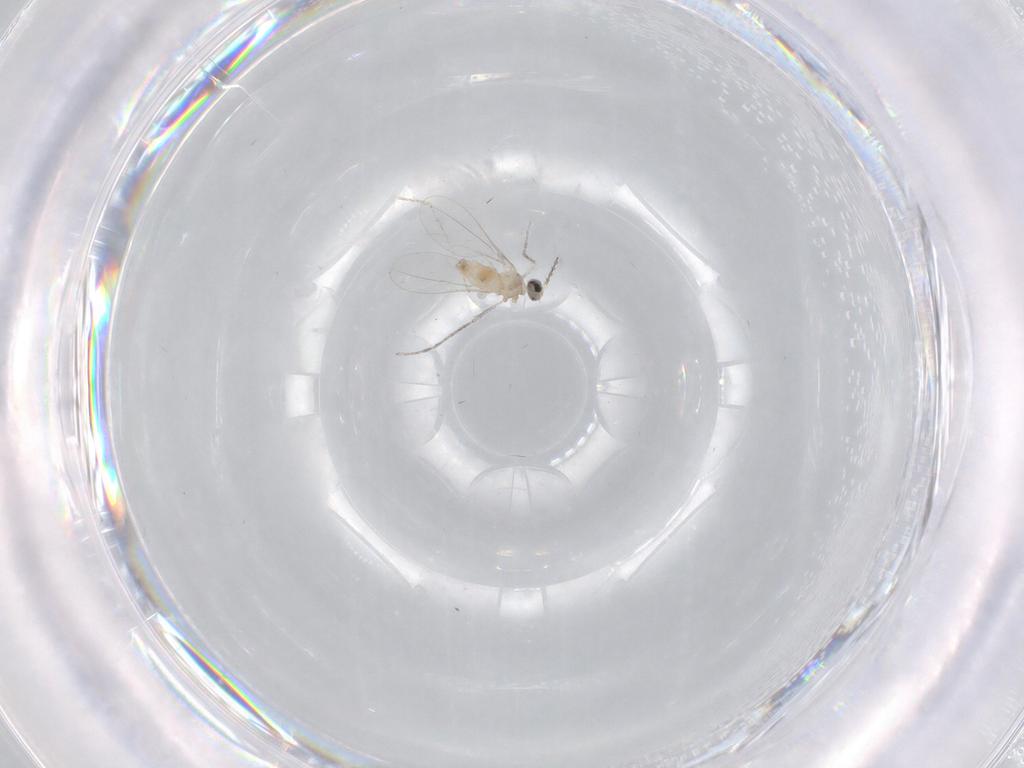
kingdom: Animalia
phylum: Arthropoda
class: Insecta
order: Diptera
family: Cecidomyiidae
